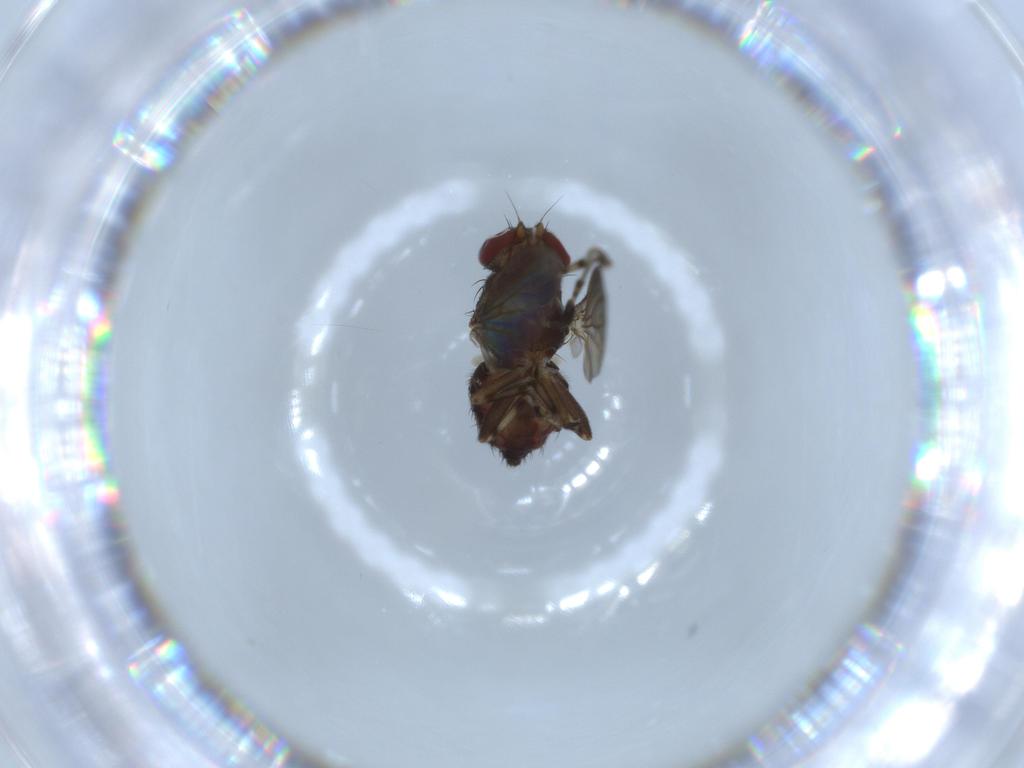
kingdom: Animalia
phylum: Arthropoda
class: Insecta
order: Diptera
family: Heleomyzidae
